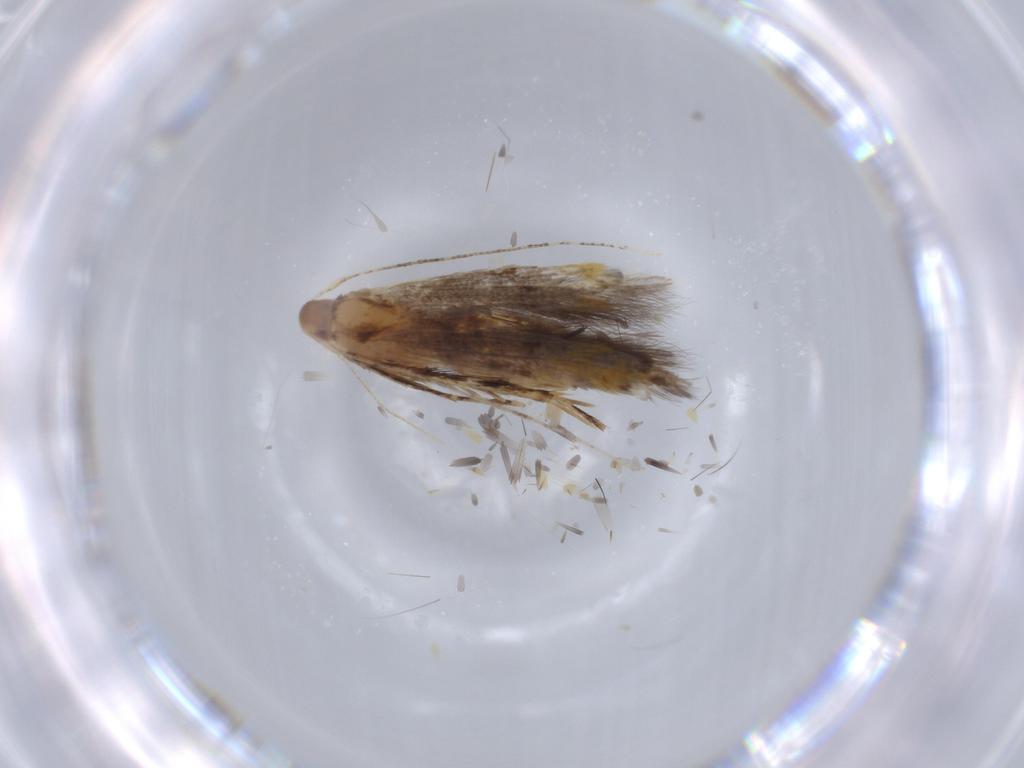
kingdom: Animalia
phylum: Arthropoda
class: Insecta
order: Lepidoptera
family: Cosmopterigidae
